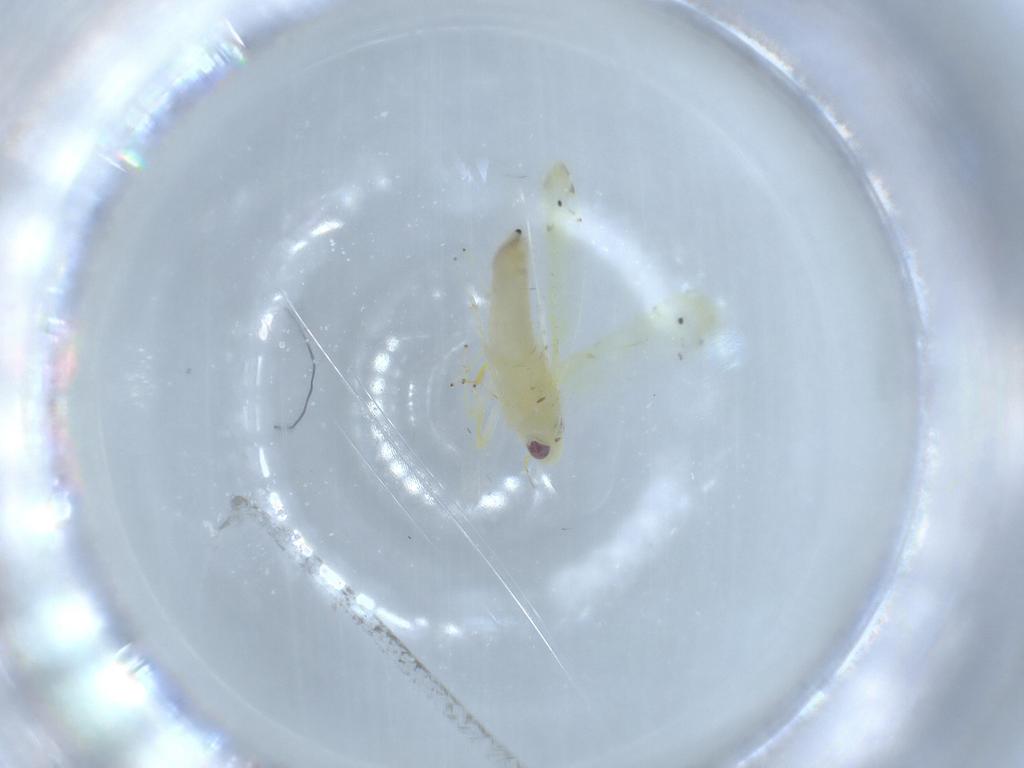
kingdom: Animalia
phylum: Arthropoda
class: Insecta
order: Hemiptera
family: Cicadellidae
